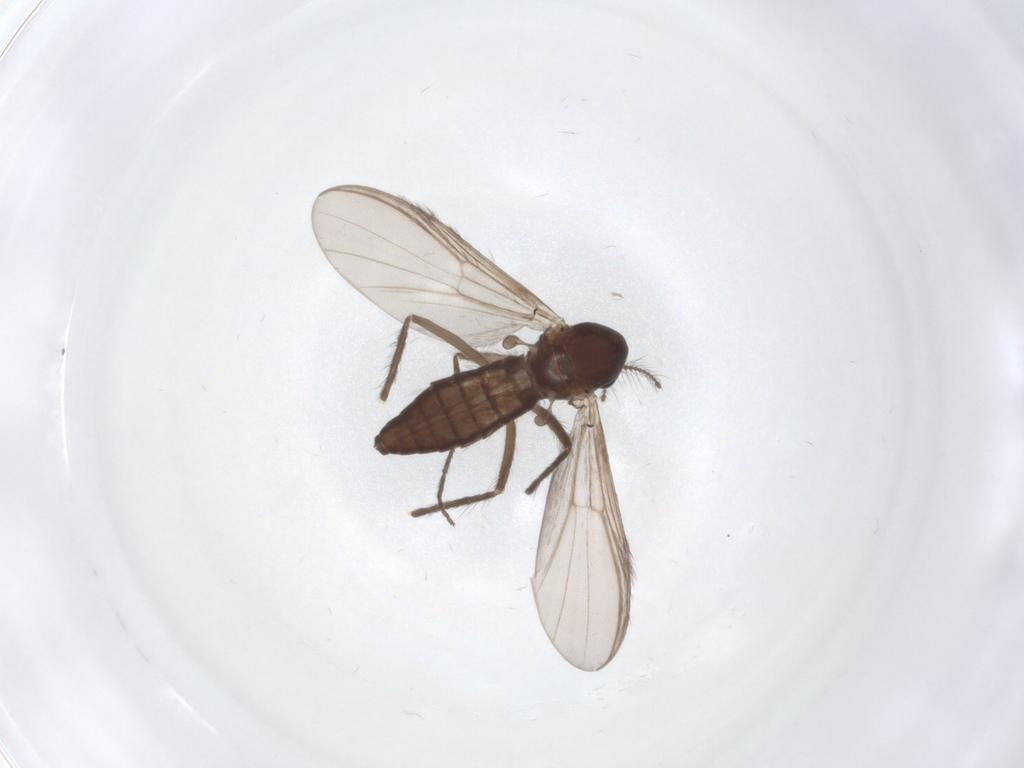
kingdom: Animalia
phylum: Arthropoda
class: Insecta
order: Diptera
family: Chironomidae
